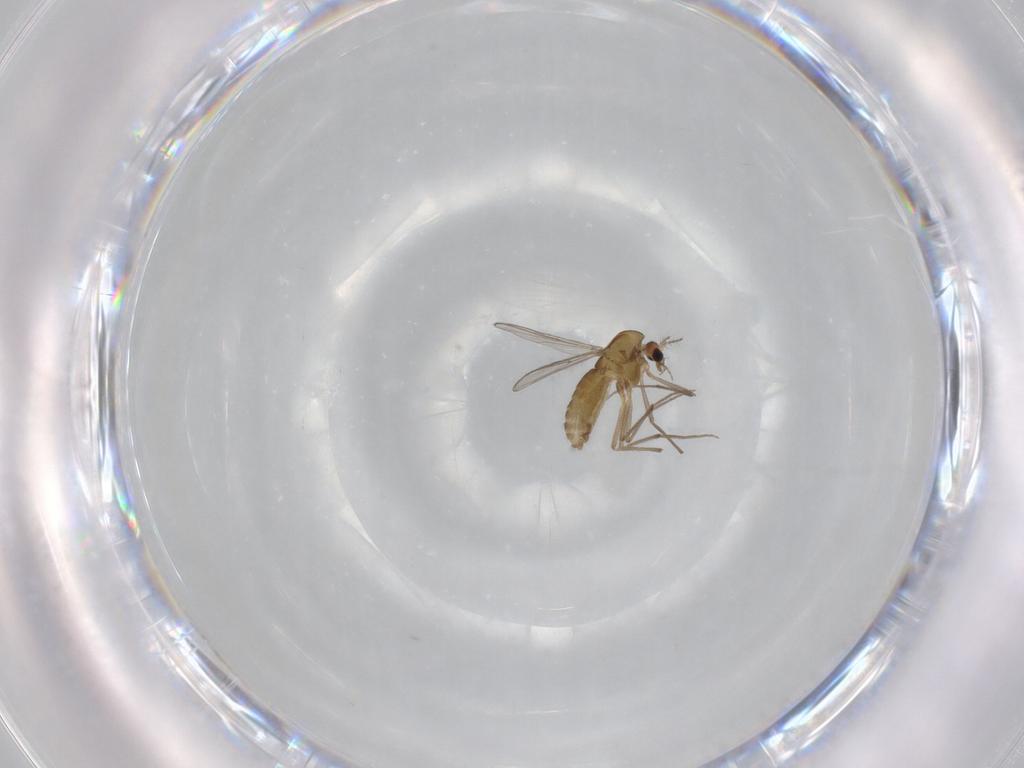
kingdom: Animalia
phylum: Arthropoda
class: Insecta
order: Diptera
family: Chironomidae
